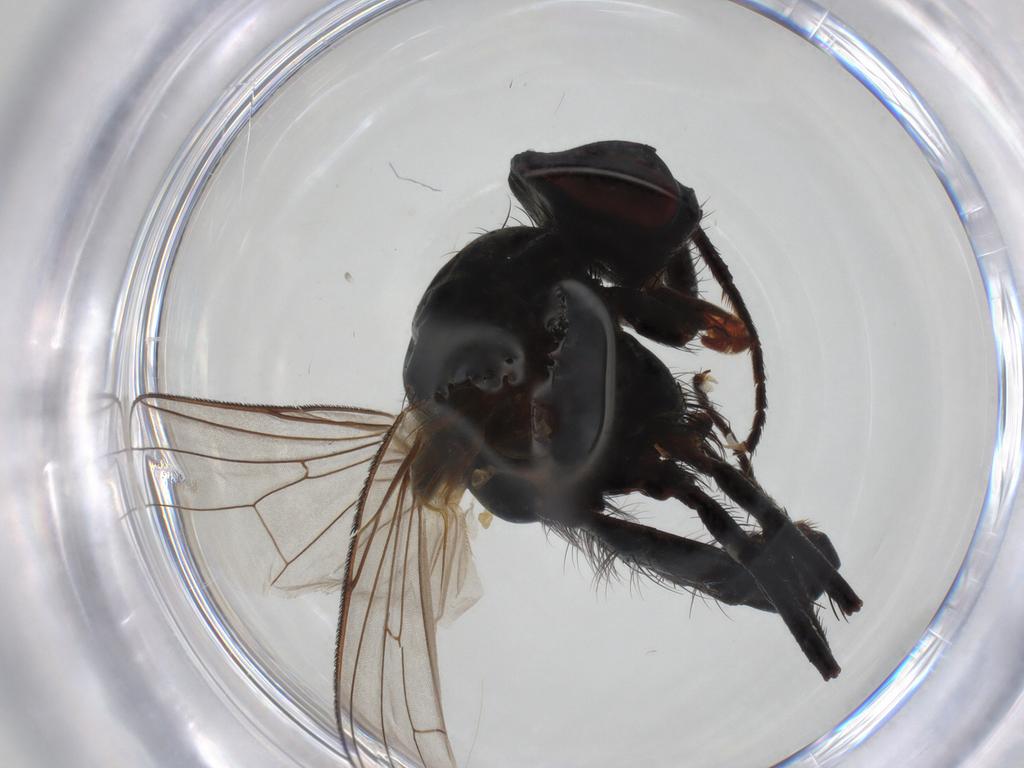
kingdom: Animalia
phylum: Arthropoda
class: Insecta
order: Diptera
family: Anthomyiidae
